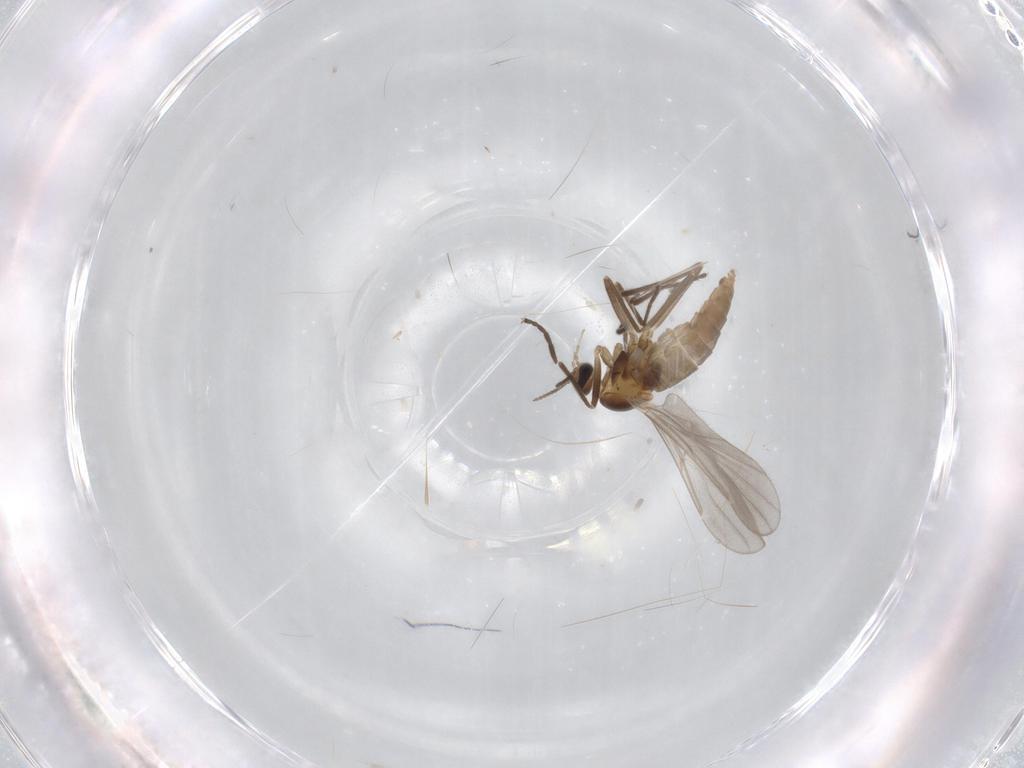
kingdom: Animalia
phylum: Arthropoda
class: Insecta
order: Diptera
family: Cecidomyiidae
